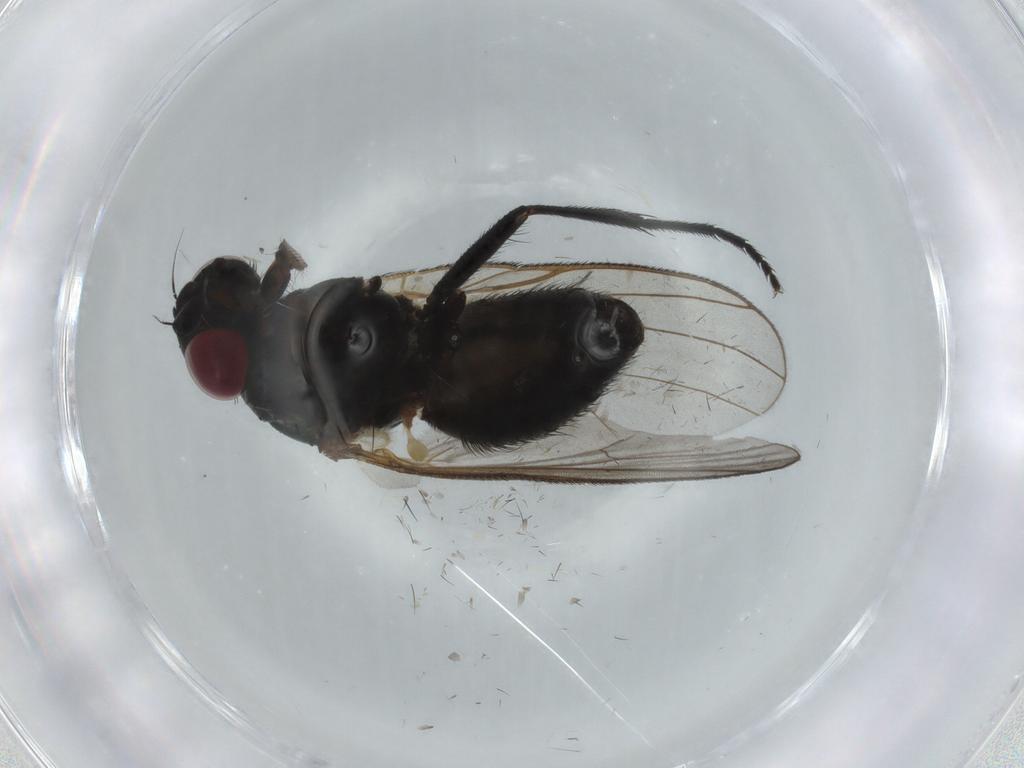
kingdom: Animalia
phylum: Arthropoda
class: Insecta
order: Diptera
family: Fannia
